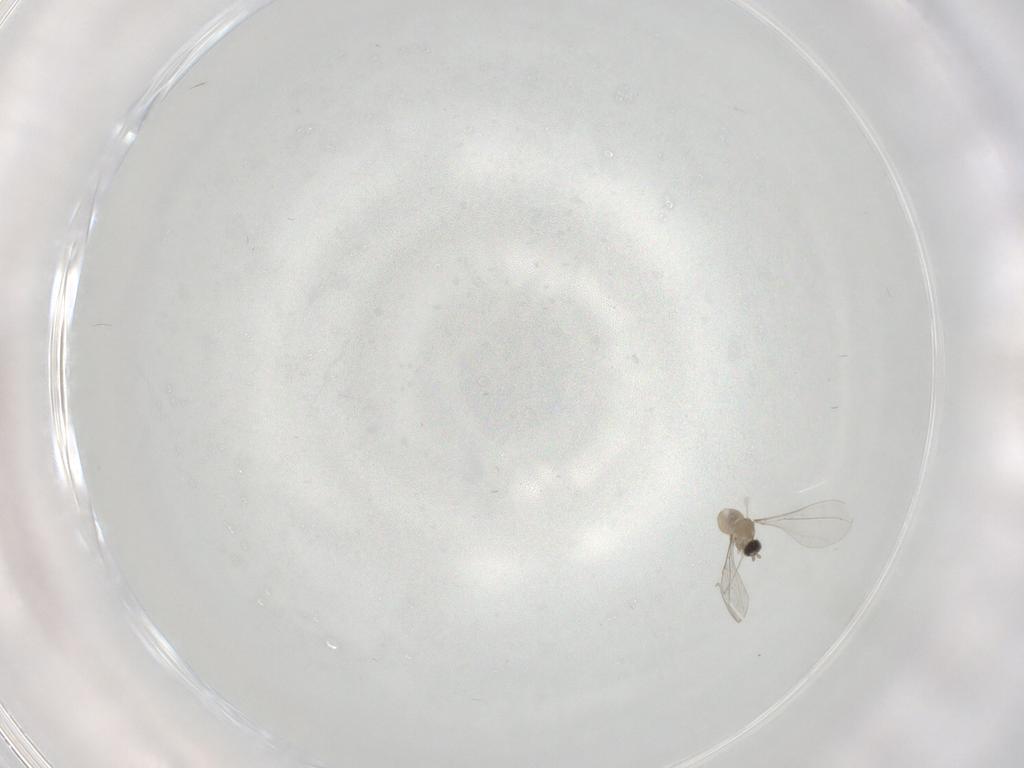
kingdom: Animalia
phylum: Arthropoda
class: Insecta
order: Diptera
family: Cecidomyiidae
